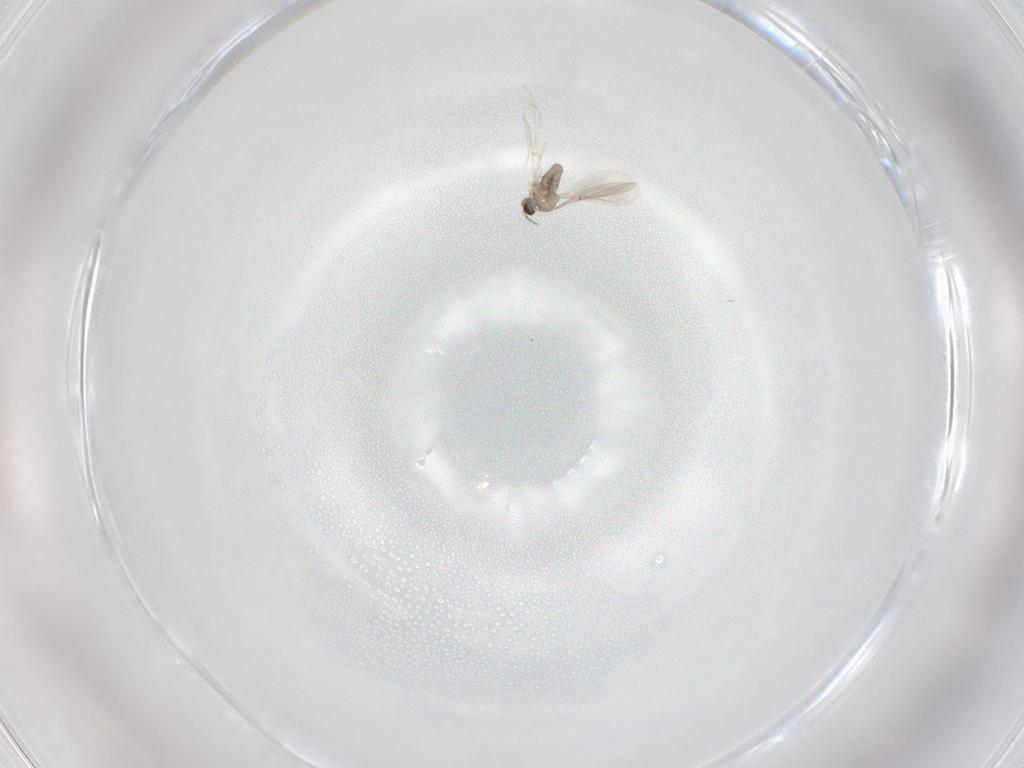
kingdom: Animalia
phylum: Arthropoda
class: Insecta
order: Diptera
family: Cecidomyiidae
